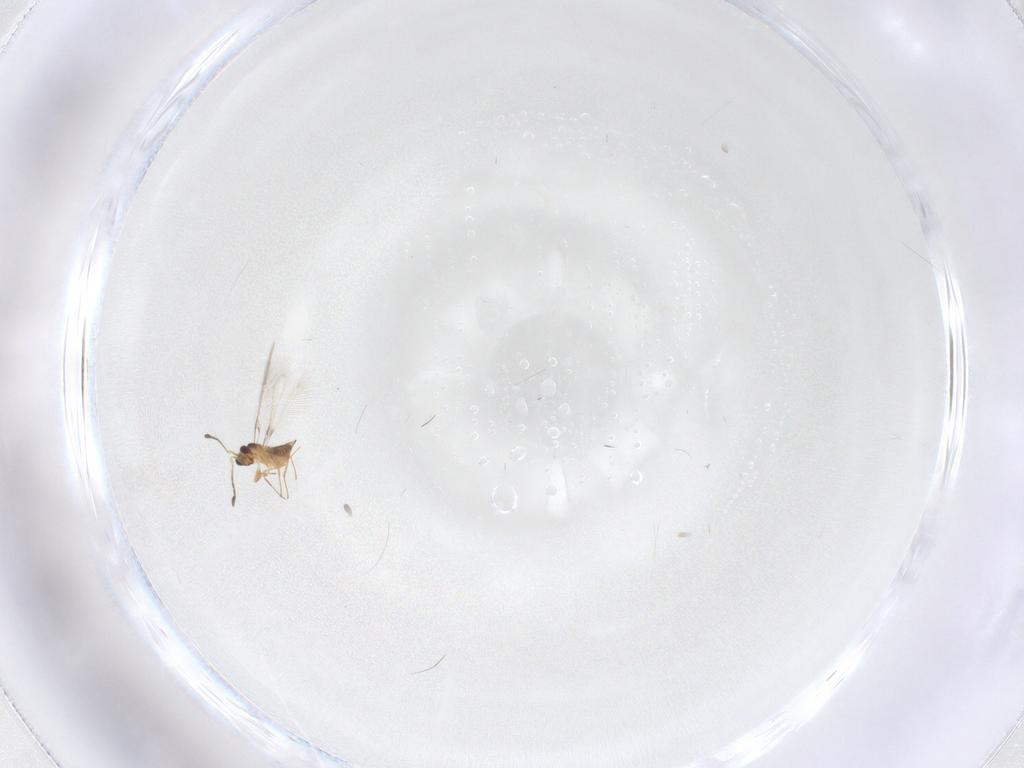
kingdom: Animalia
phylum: Arthropoda
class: Insecta
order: Hymenoptera
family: Mymaridae
